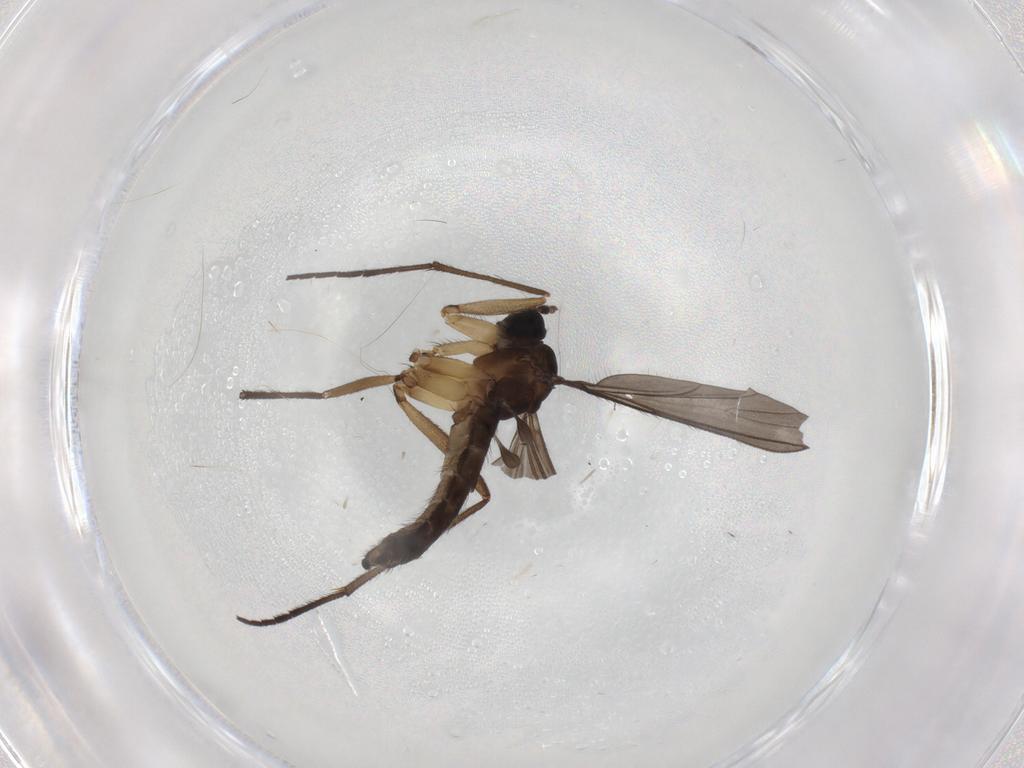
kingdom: Animalia
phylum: Arthropoda
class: Insecta
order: Diptera
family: Sciaridae
